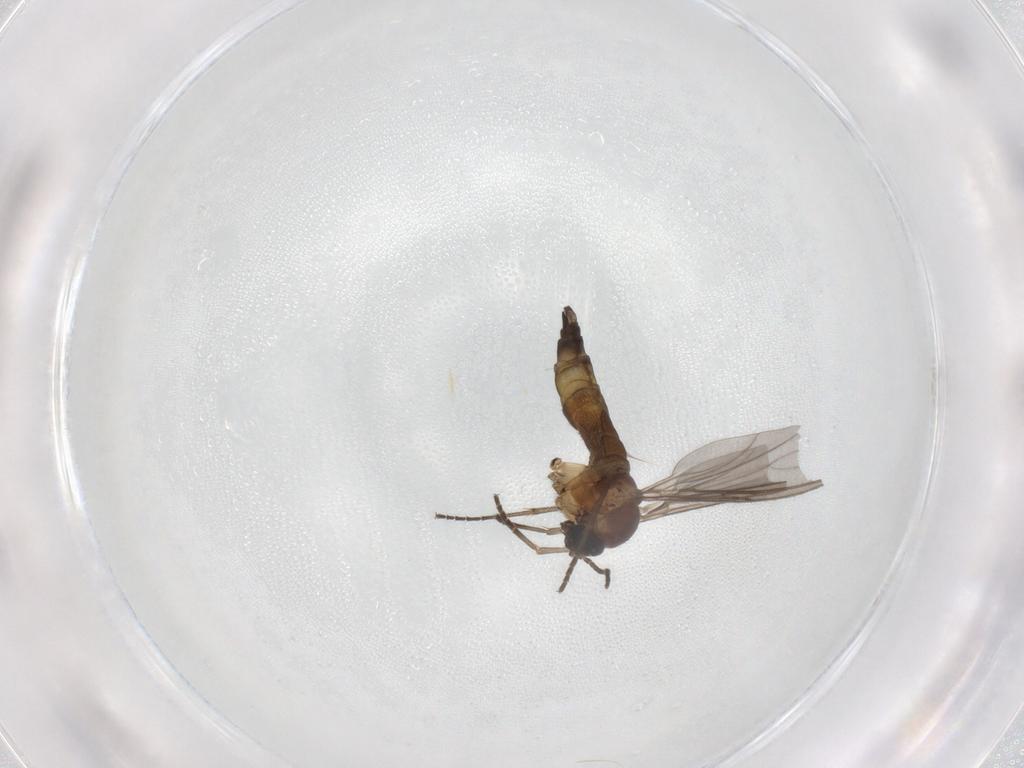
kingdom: Animalia
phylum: Arthropoda
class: Insecta
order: Diptera
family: Sciaridae
